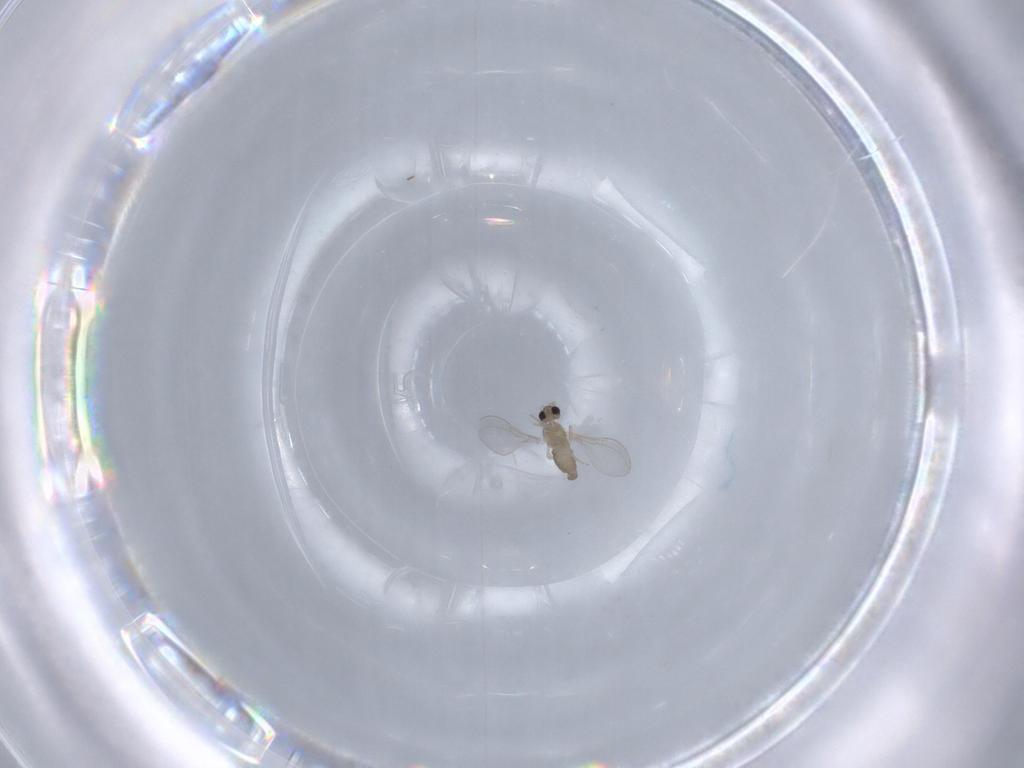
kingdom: Animalia
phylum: Arthropoda
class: Insecta
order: Diptera
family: Cecidomyiidae
